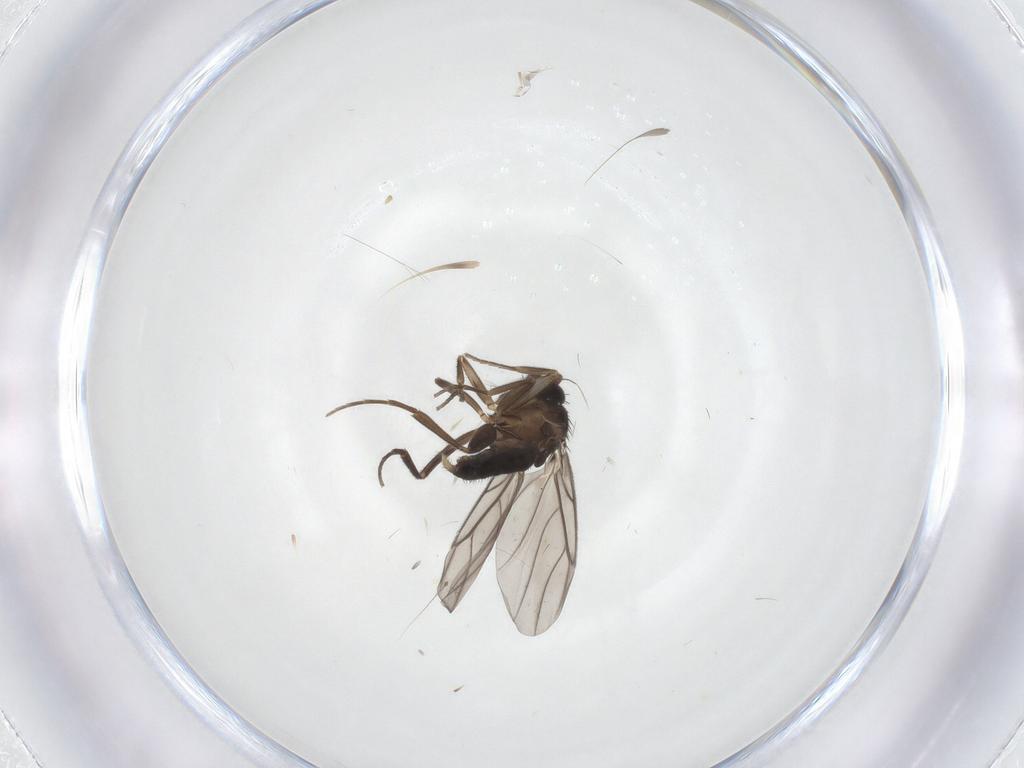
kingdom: Animalia
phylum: Arthropoda
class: Insecta
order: Diptera
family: Phoridae
